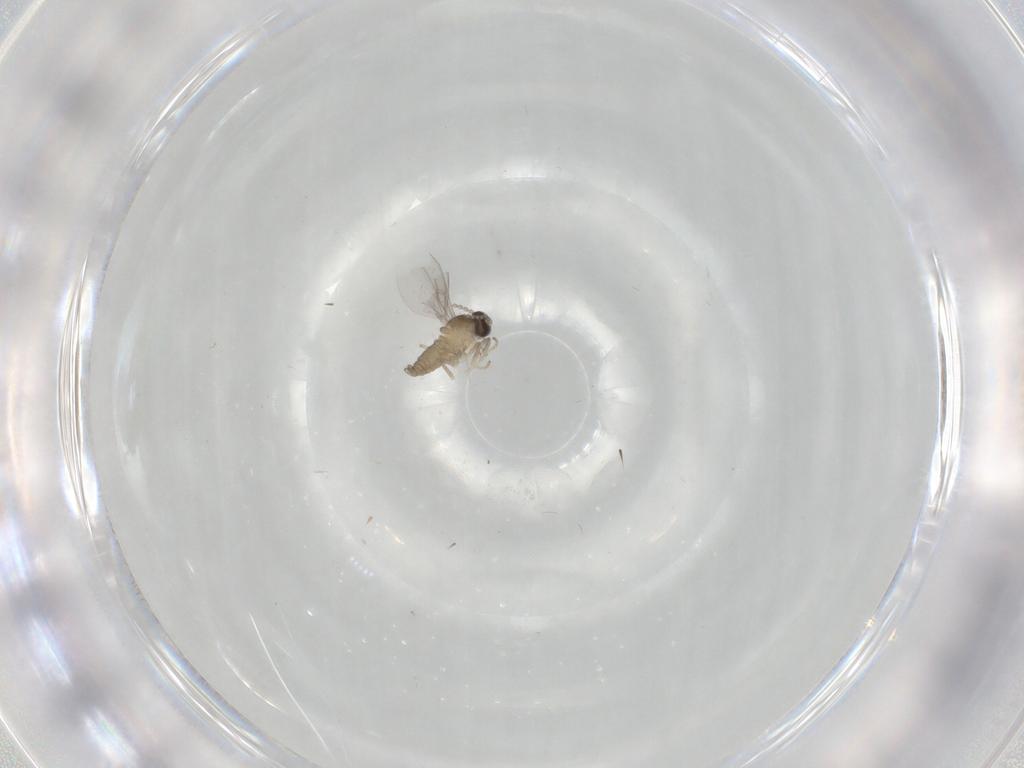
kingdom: Animalia
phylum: Arthropoda
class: Insecta
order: Diptera
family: Cecidomyiidae
